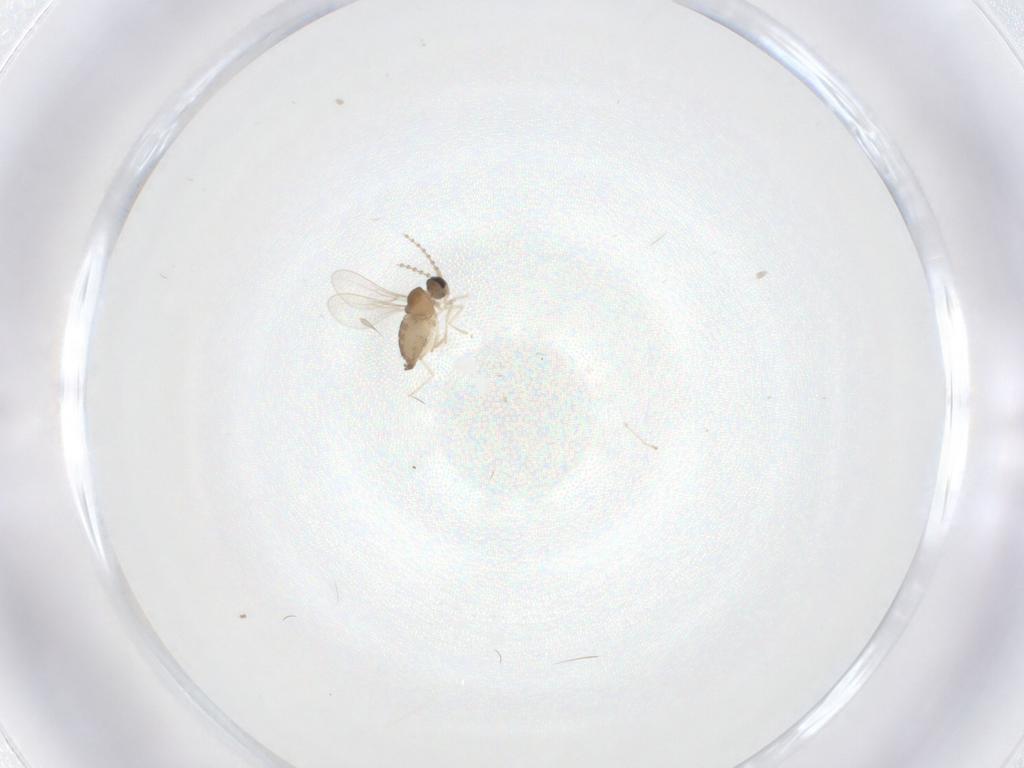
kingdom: Animalia
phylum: Arthropoda
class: Insecta
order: Diptera
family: Cecidomyiidae
